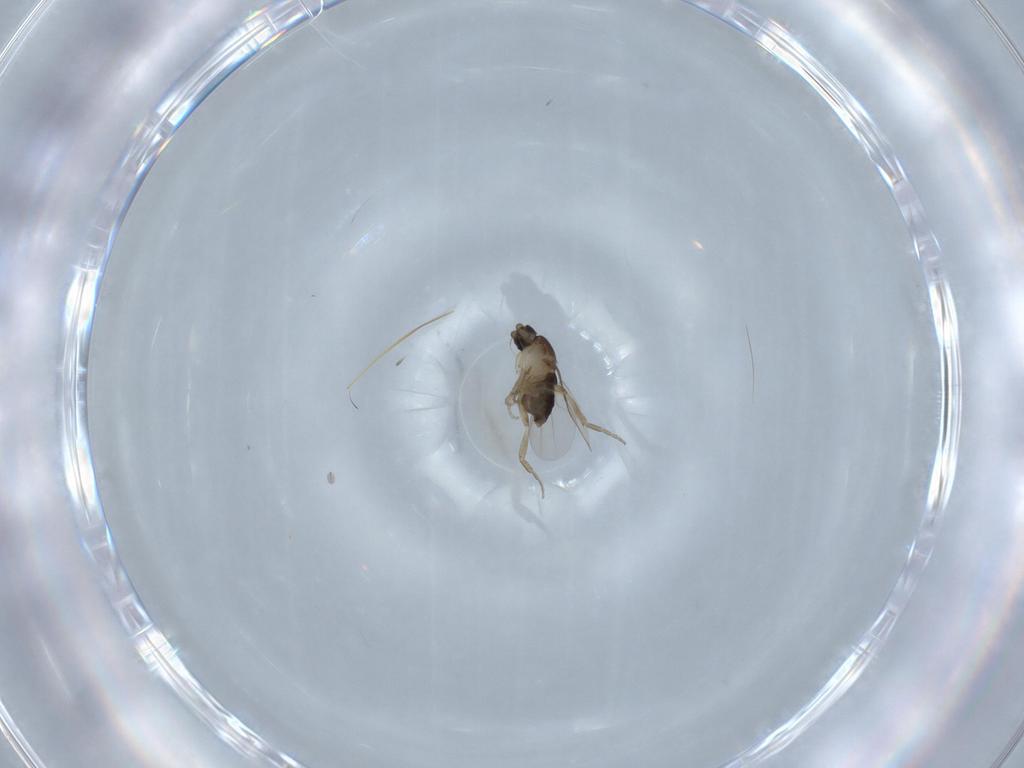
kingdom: Animalia
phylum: Arthropoda
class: Insecta
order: Diptera
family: Phoridae
